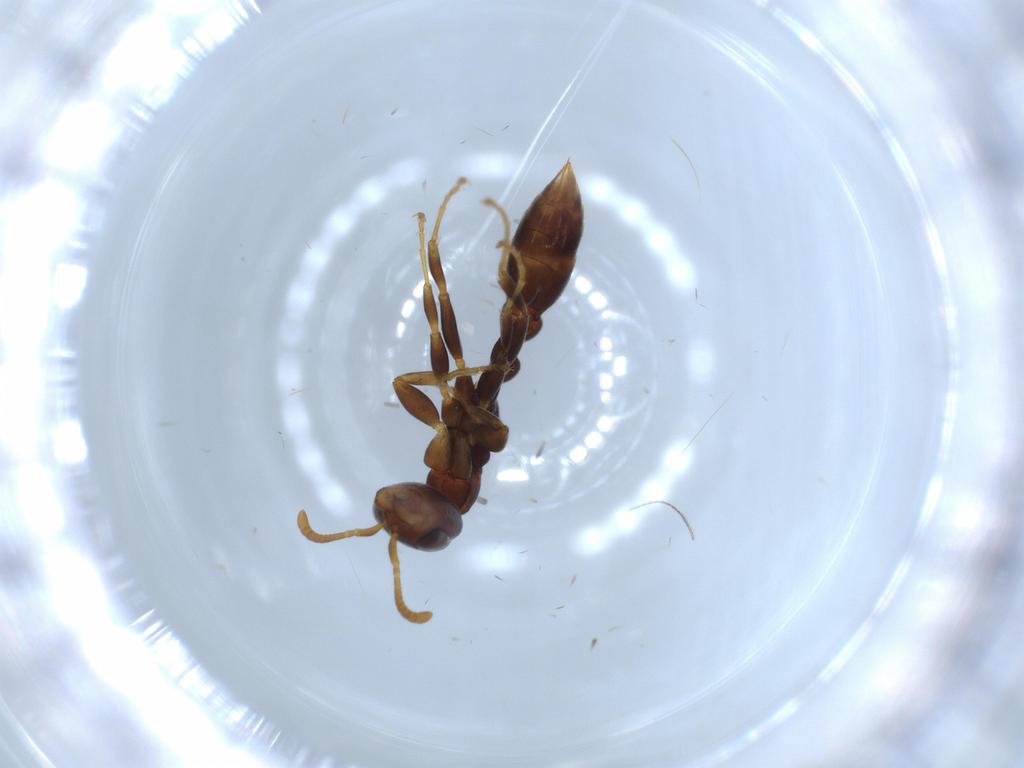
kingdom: Animalia
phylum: Arthropoda
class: Insecta
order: Hymenoptera
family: Formicidae
